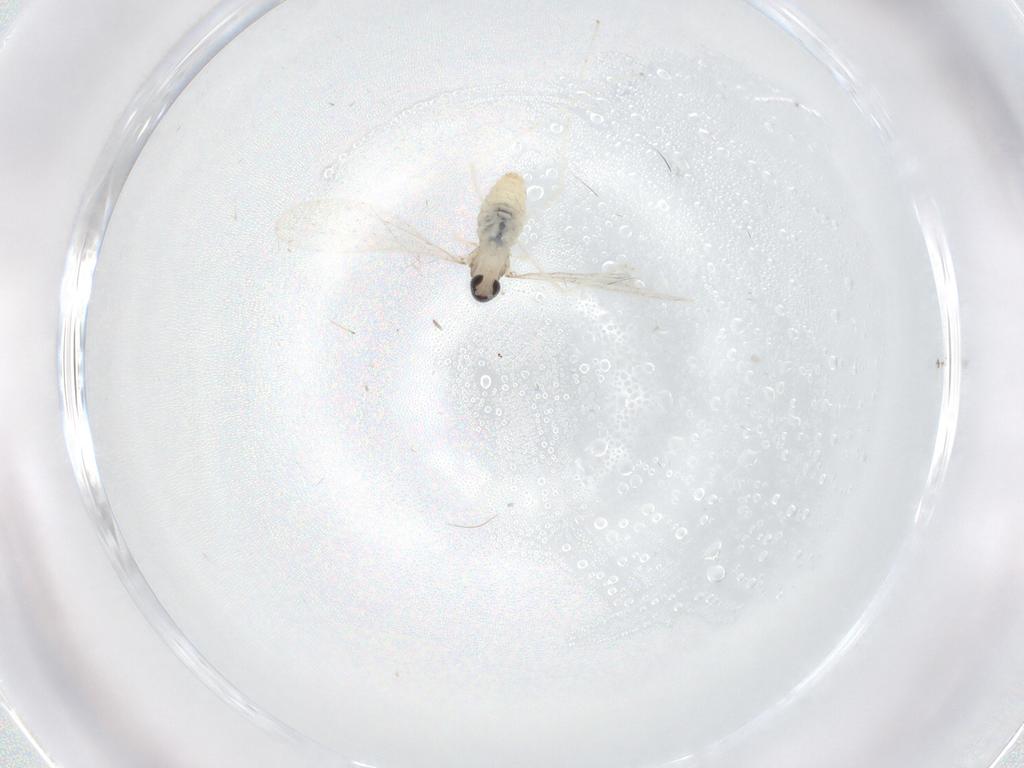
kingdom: Animalia
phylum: Arthropoda
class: Insecta
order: Diptera
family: Cecidomyiidae
